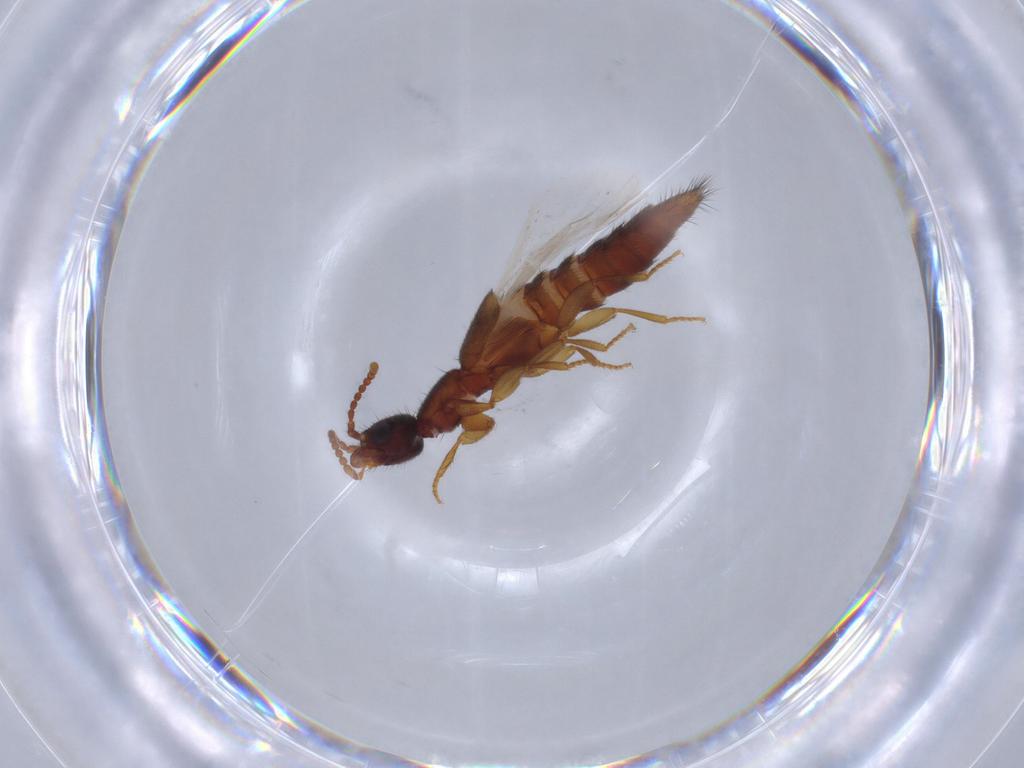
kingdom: Animalia
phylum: Arthropoda
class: Insecta
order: Coleoptera
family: Staphylinidae
